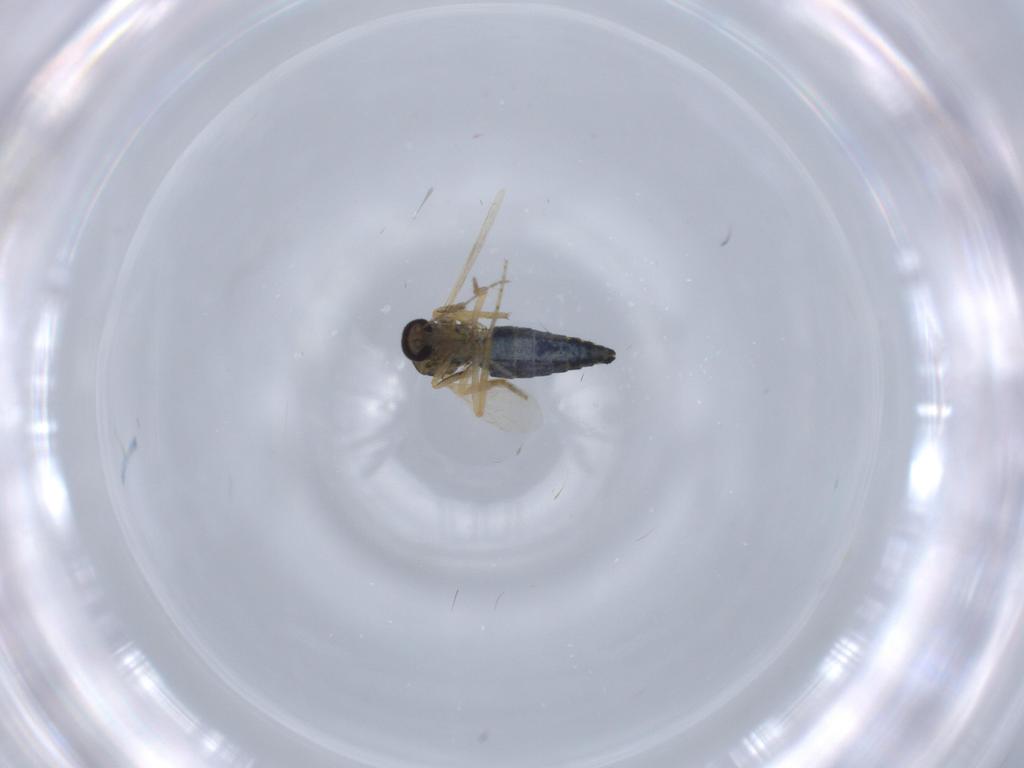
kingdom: Animalia
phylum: Arthropoda
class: Insecta
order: Diptera
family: Ceratopogonidae
